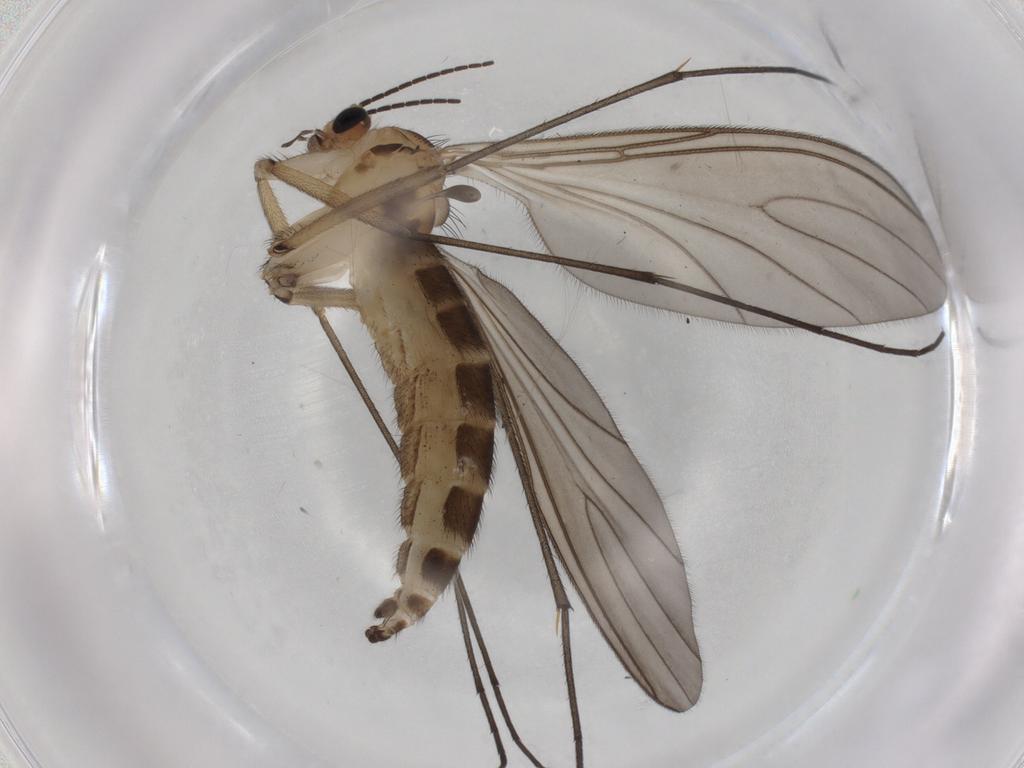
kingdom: Animalia
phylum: Arthropoda
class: Insecta
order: Diptera
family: Sciaridae
